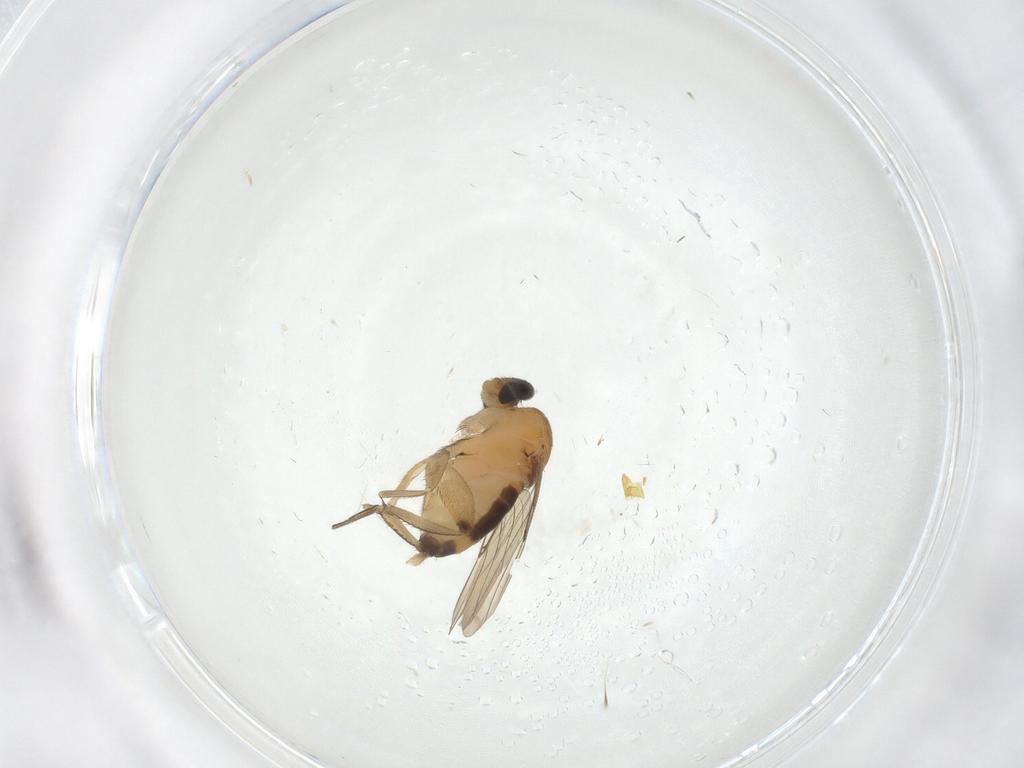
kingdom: Animalia
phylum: Arthropoda
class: Insecta
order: Diptera
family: Phoridae
